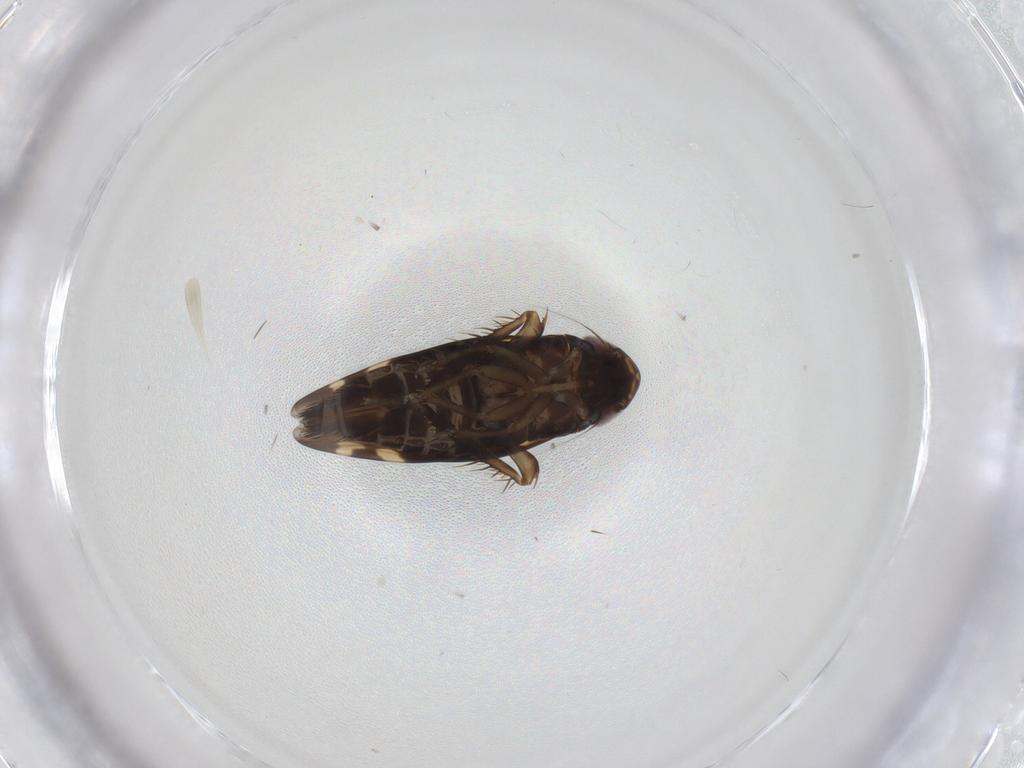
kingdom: Animalia
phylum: Arthropoda
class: Insecta
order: Hemiptera
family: Cicadellidae
